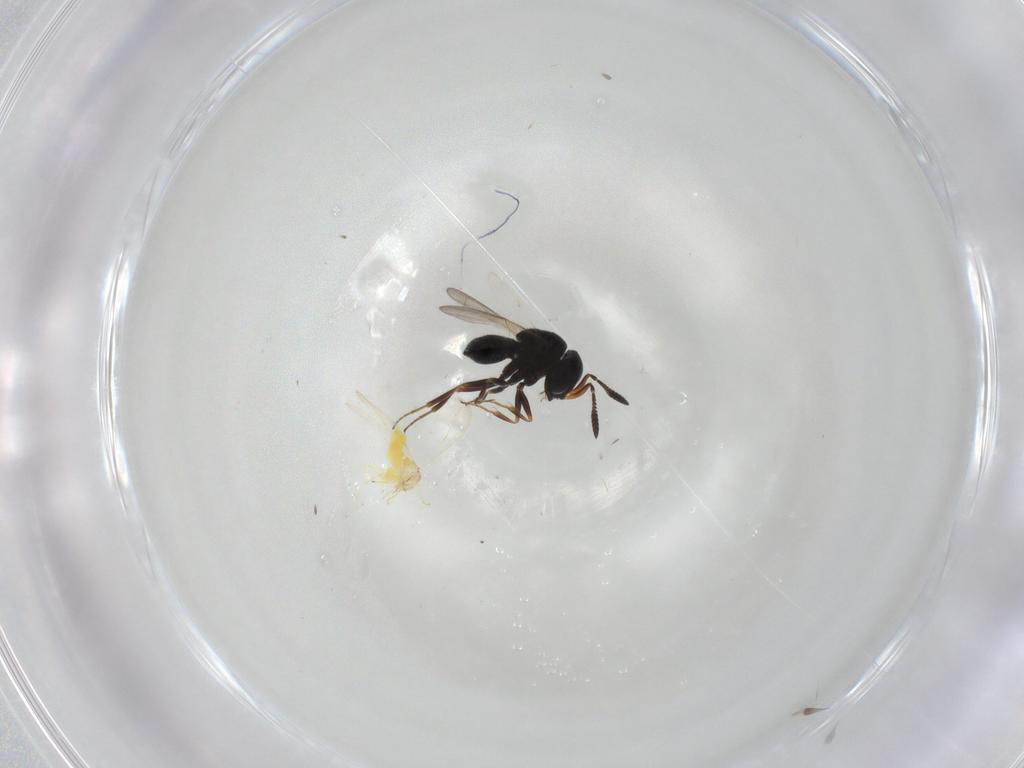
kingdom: Animalia
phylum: Arthropoda
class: Insecta
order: Hymenoptera
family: Scelionidae
